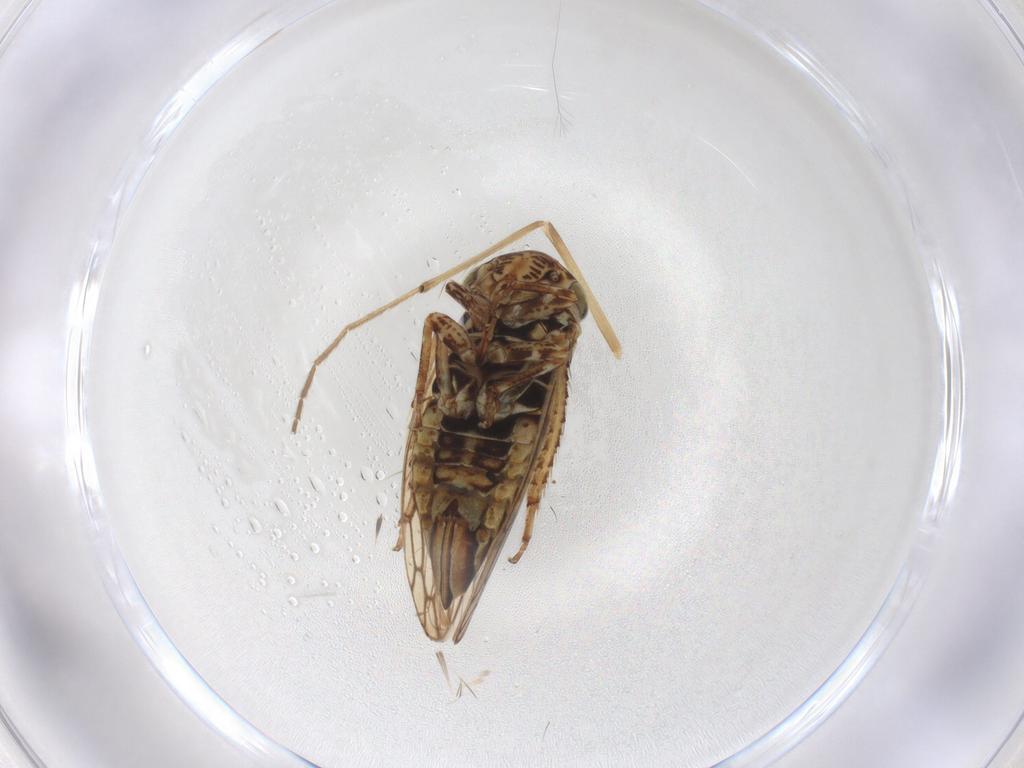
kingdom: Animalia
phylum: Arthropoda
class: Insecta
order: Hemiptera
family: Cicadellidae
